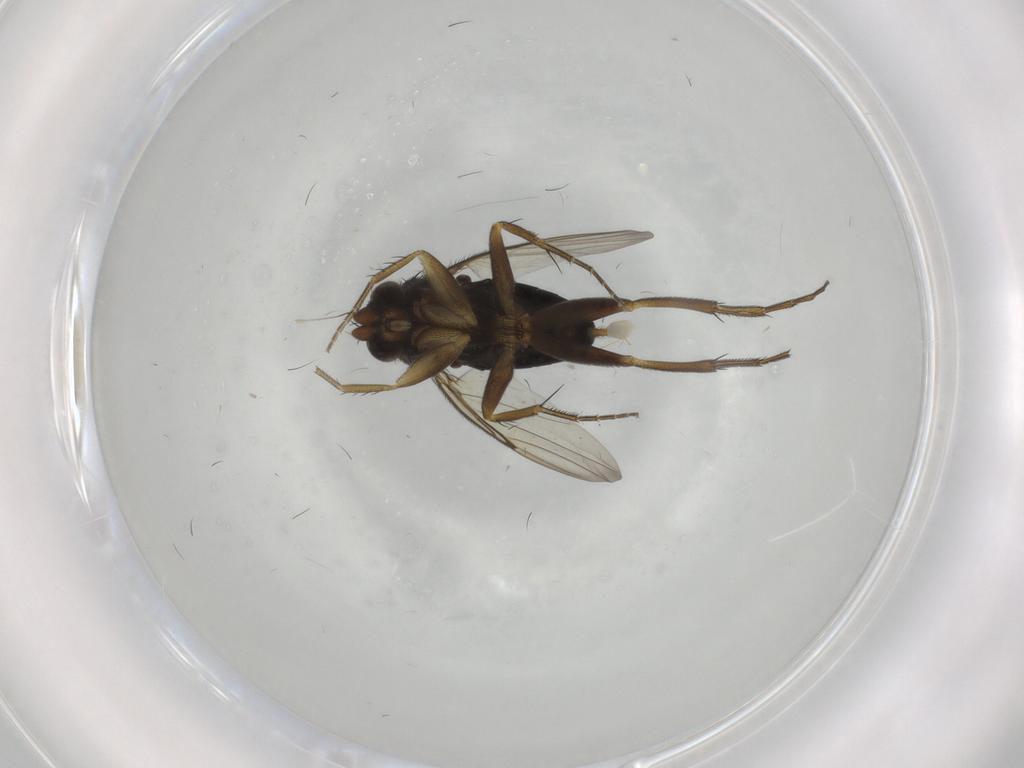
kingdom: Animalia
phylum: Arthropoda
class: Insecta
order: Diptera
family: Phoridae
